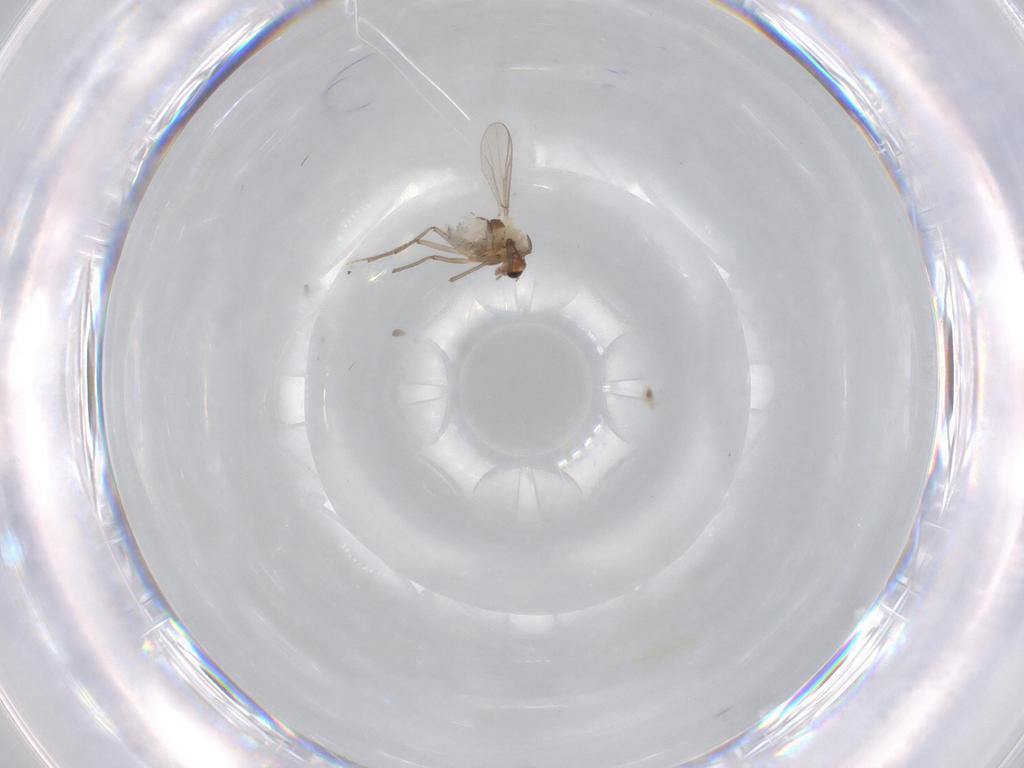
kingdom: Animalia
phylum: Arthropoda
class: Insecta
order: Diptera
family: Chironomidae
